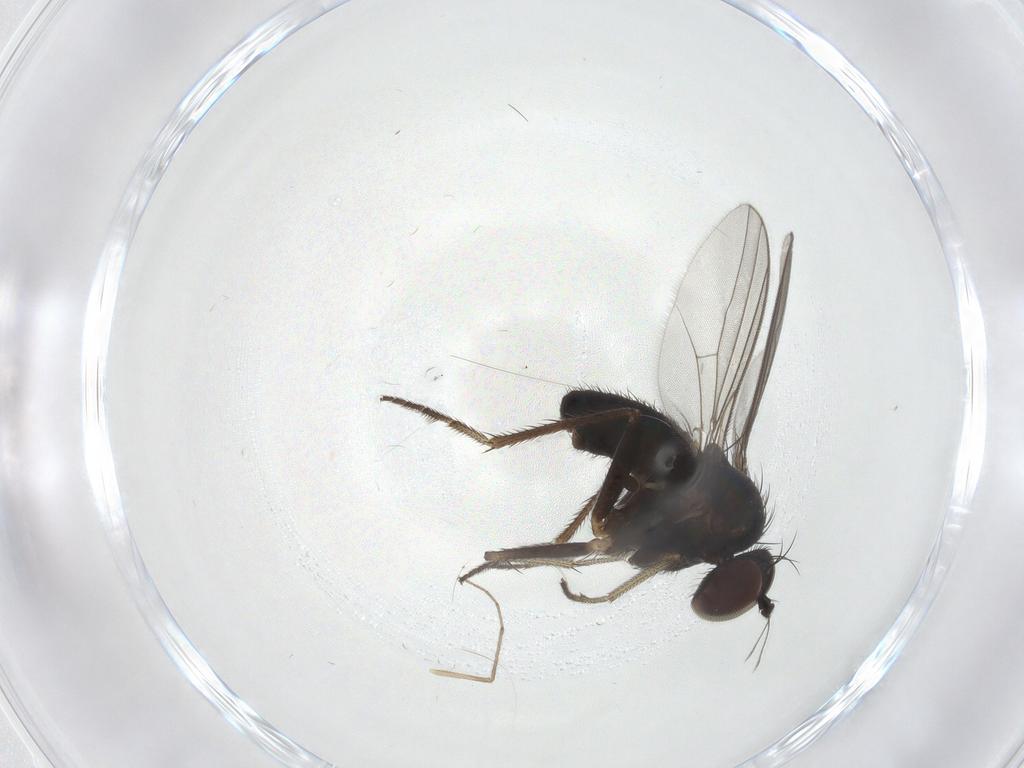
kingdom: Animalia
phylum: Arthropoda
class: Insecta
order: Diptera
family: Dolichopodidae
